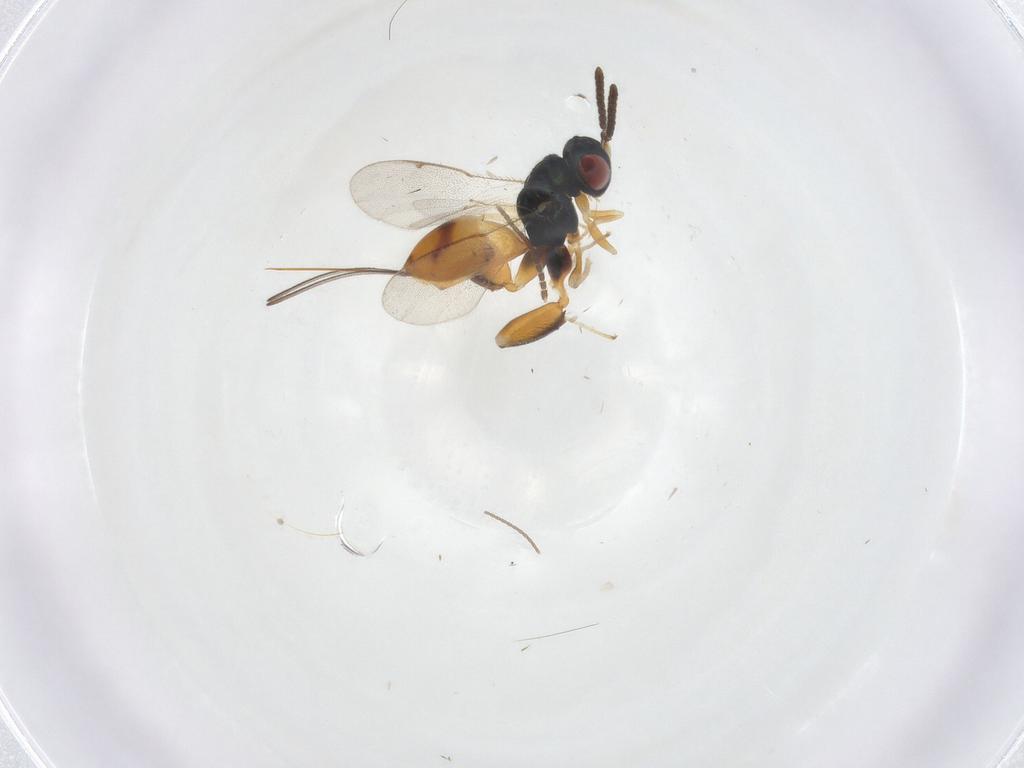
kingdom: Animalia
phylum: Arthropoda
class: Insecta
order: Hymenoptera
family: Torymidae
